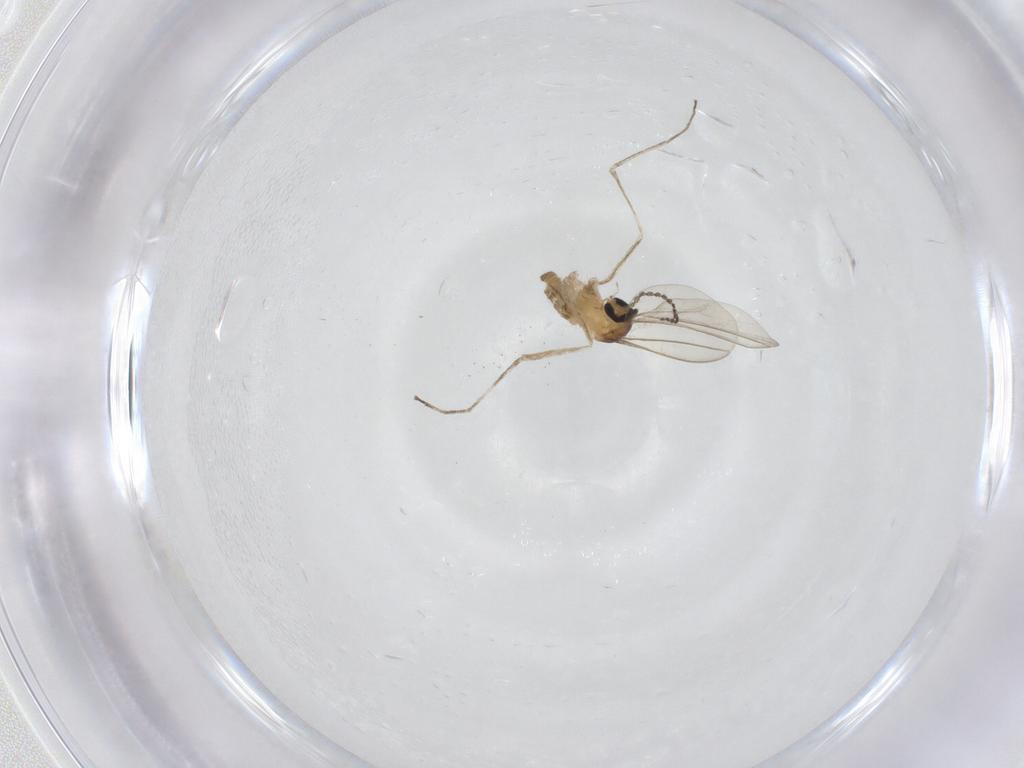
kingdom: Animalia
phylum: Arthropoda
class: Insecta
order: Diptera
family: Cecidomyiidae
